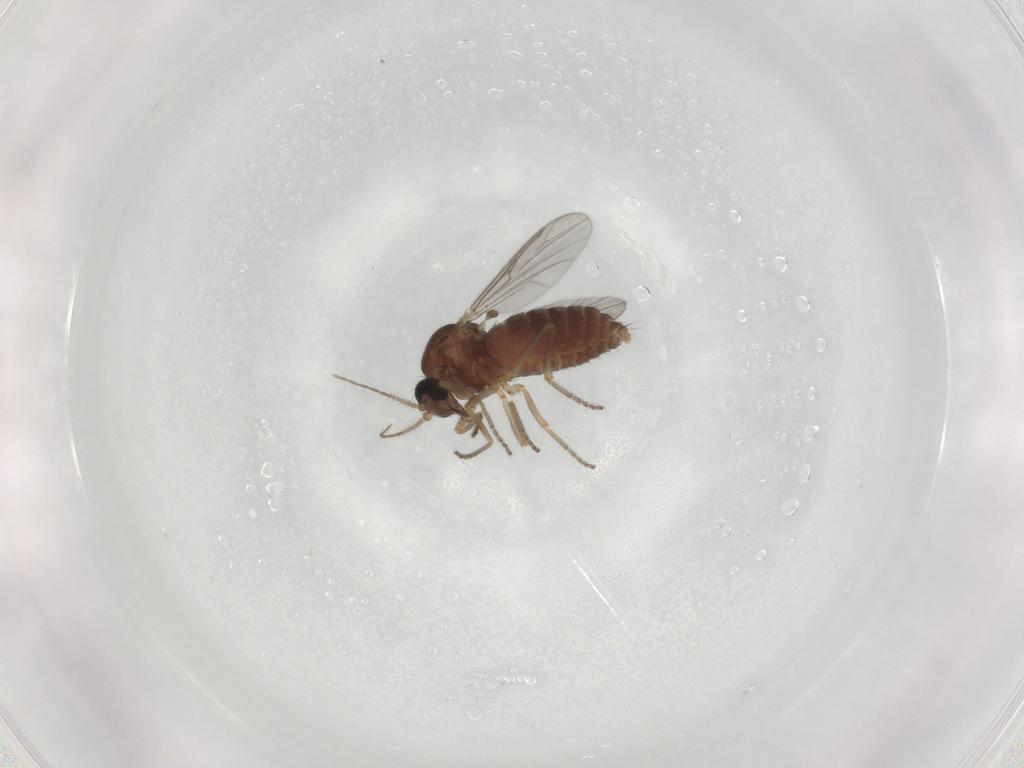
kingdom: Animalia
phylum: Arthropoda
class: Insecta
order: Diptera
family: Ceratopogonidae
